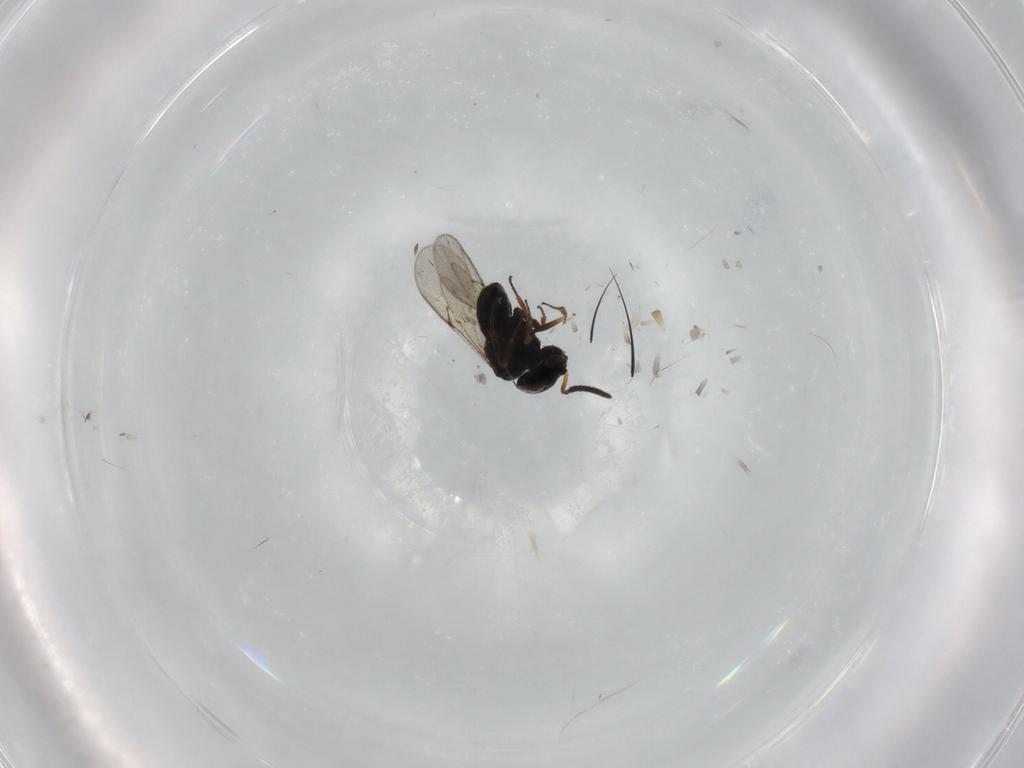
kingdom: Animalia
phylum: Arthropoda
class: Insecta
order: Hymenoptera
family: Scelionidae
